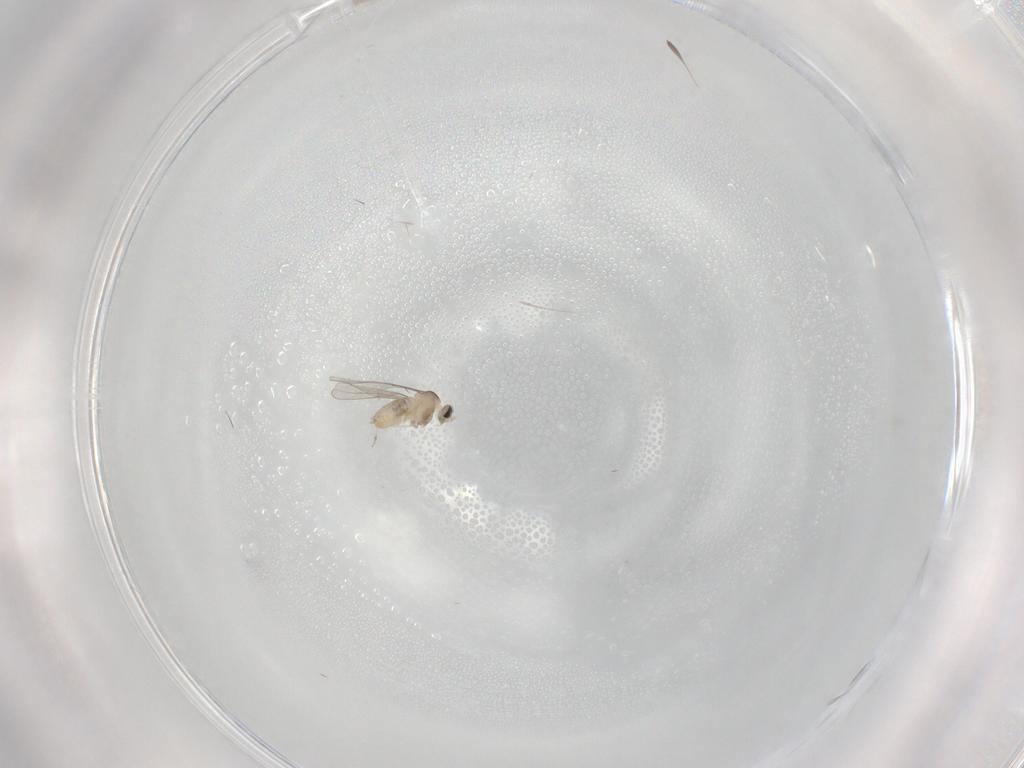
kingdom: Animalia
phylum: Arthropoda
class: Insecta
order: Diptera
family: Cecidomyiidae
